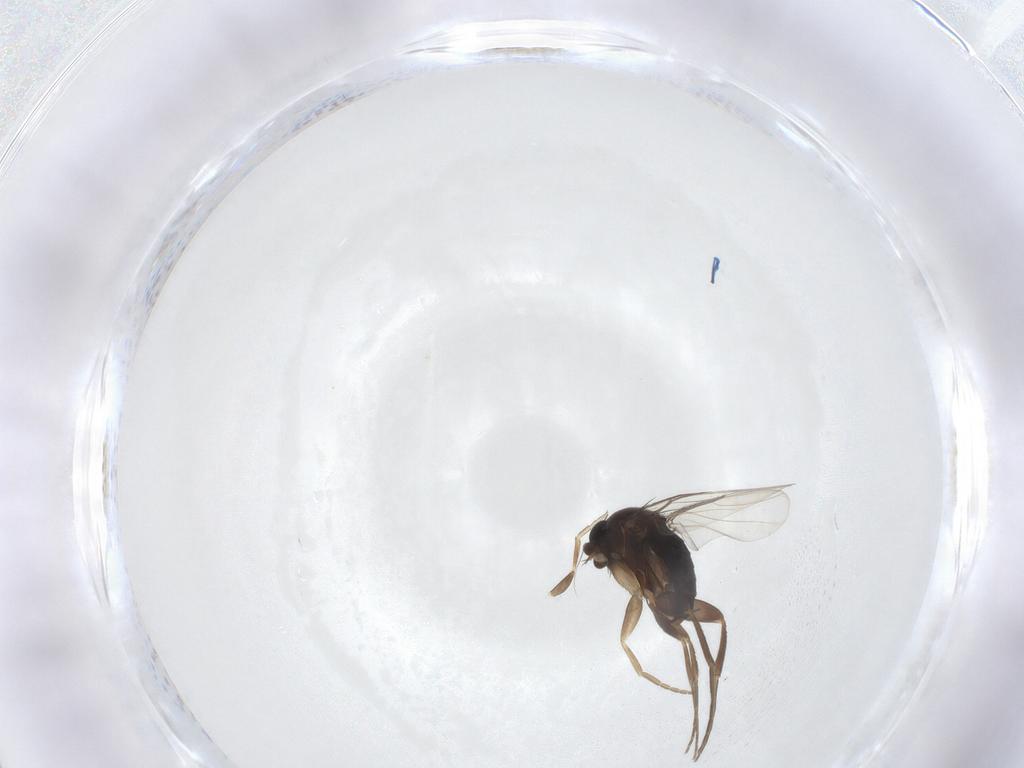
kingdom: Animalia
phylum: Arthropoda
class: Insecta
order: Diptera
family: Phoridae
